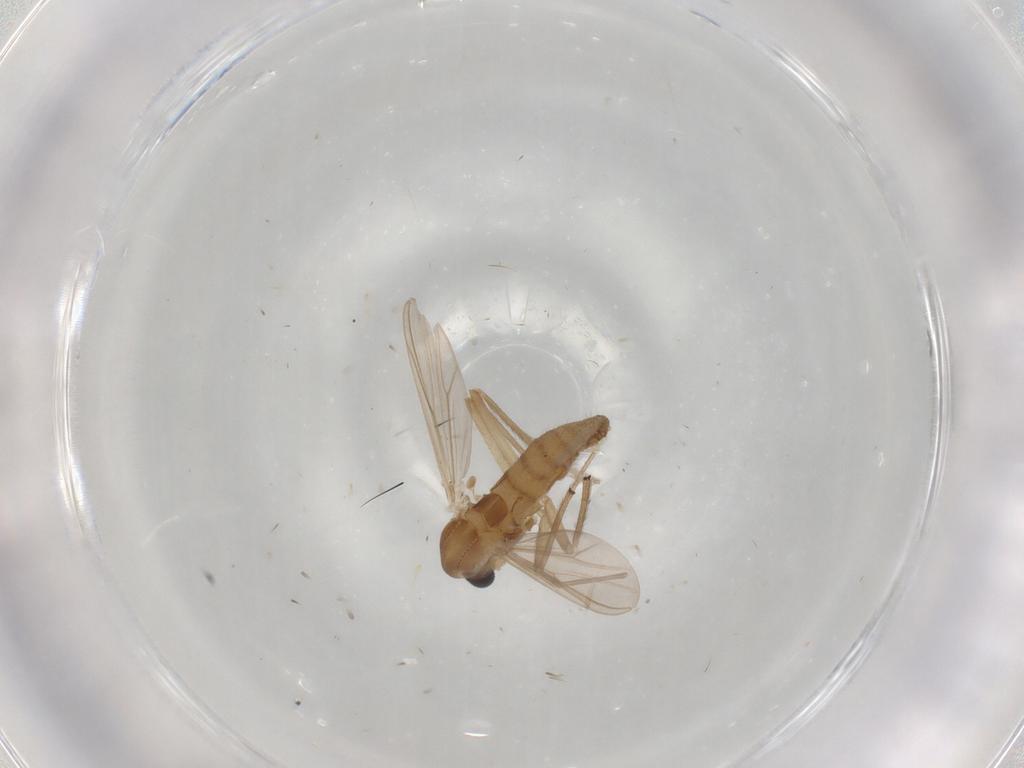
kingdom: Animalia
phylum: Arthropoda
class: Insecta
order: Diptera
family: Chironomidae
